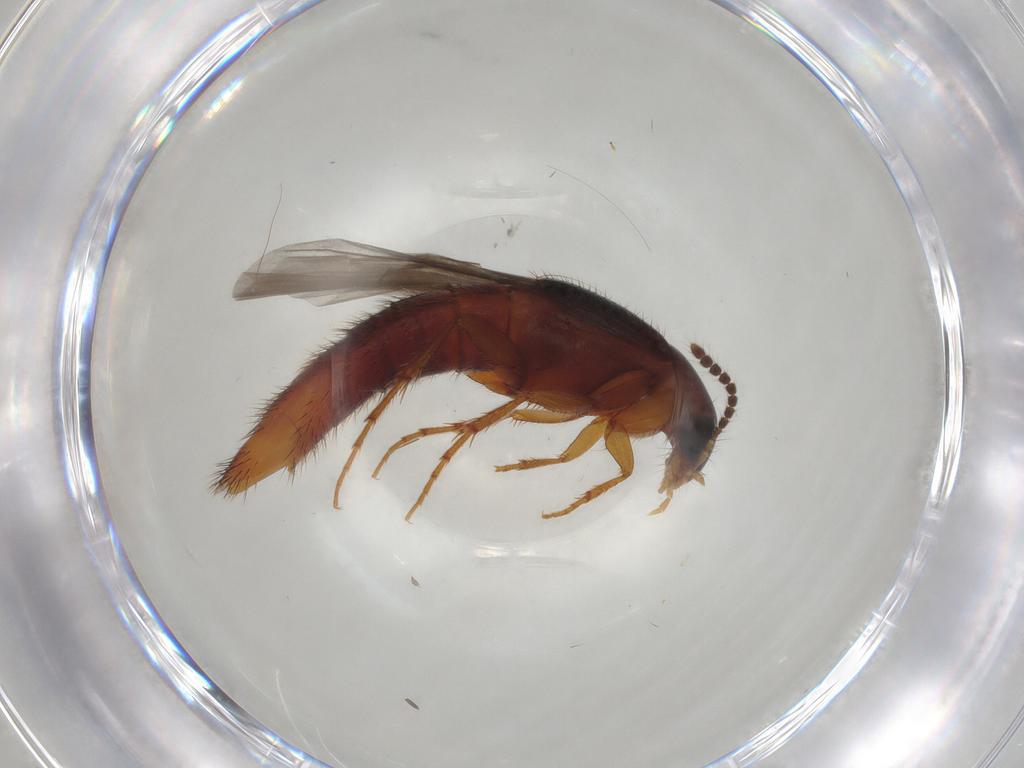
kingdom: Animalia
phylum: Arthropoda
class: Insecta
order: Coleoptera
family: Staphylinidae
